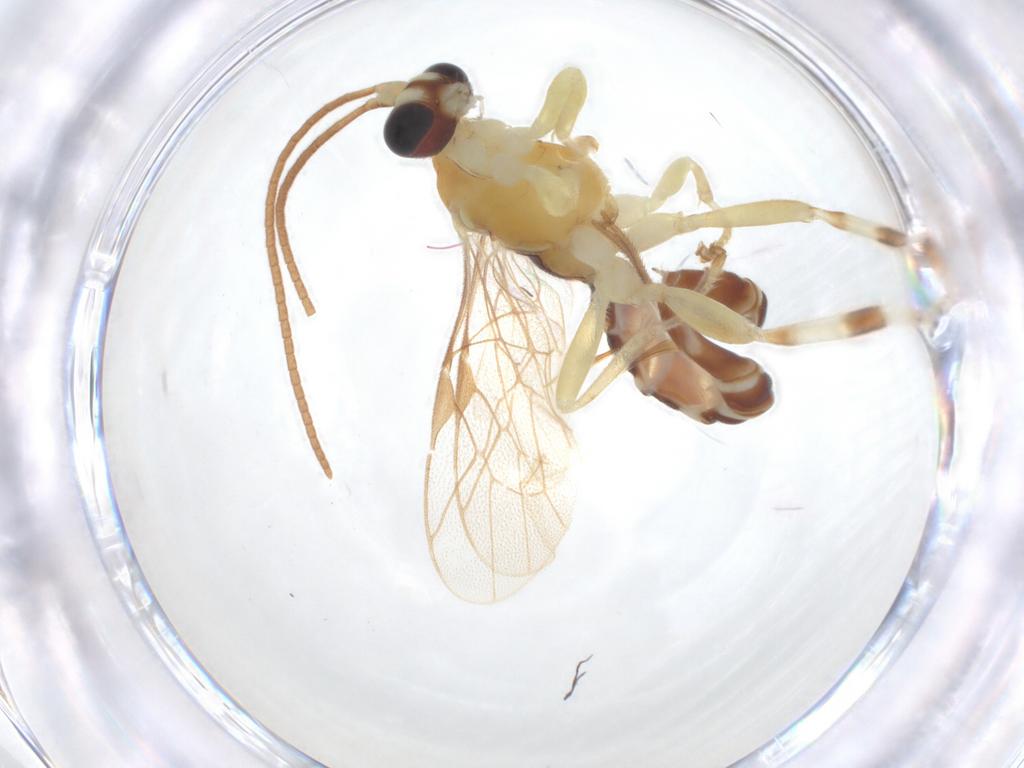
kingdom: Animalia
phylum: Arthropoda
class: Insecta
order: Hymenoptera
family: Ichneumonidae
